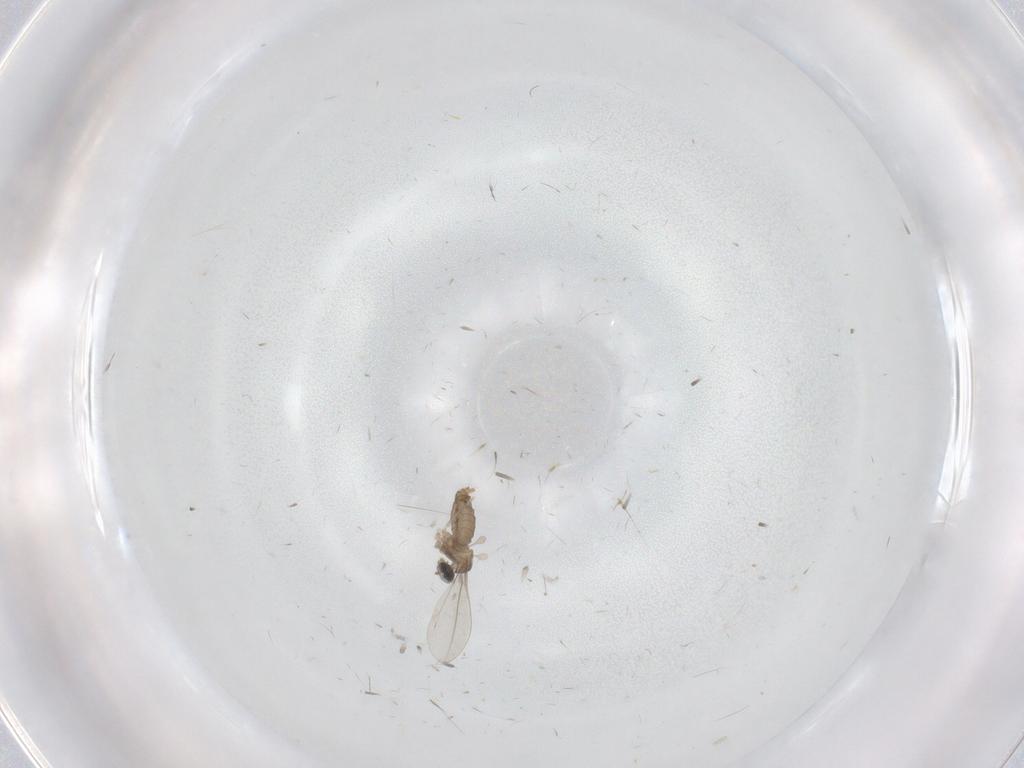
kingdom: Animalia
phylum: Arthropoda
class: Insecta
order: Diptera
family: Cecidomyiidae
